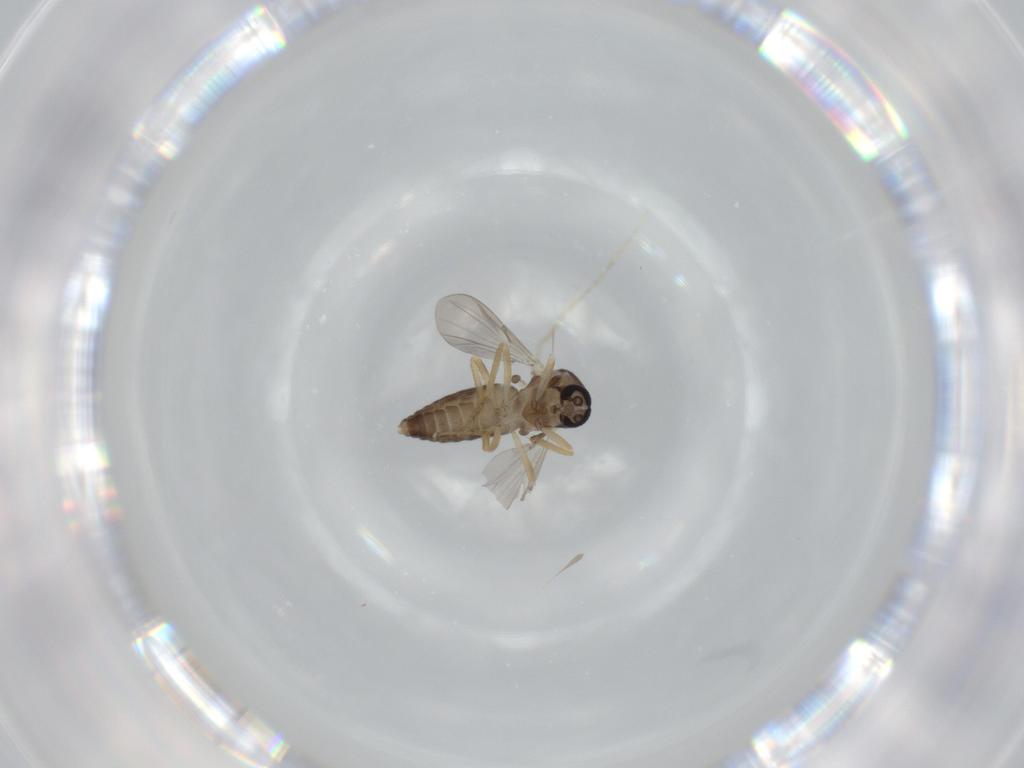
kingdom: Animalia
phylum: Arthropoda
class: Insecta
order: Diptera
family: Ceratopogonidae
